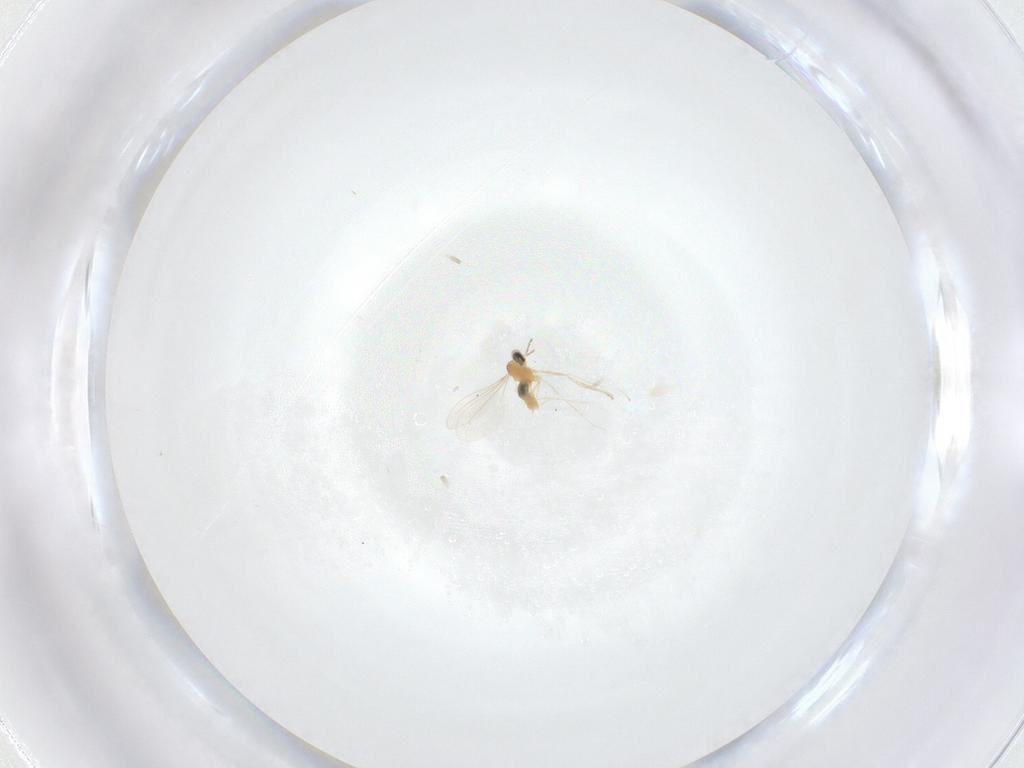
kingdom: Animalia
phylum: Arthropoda
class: Insecta
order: Diptera
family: Cecidomyiidae
